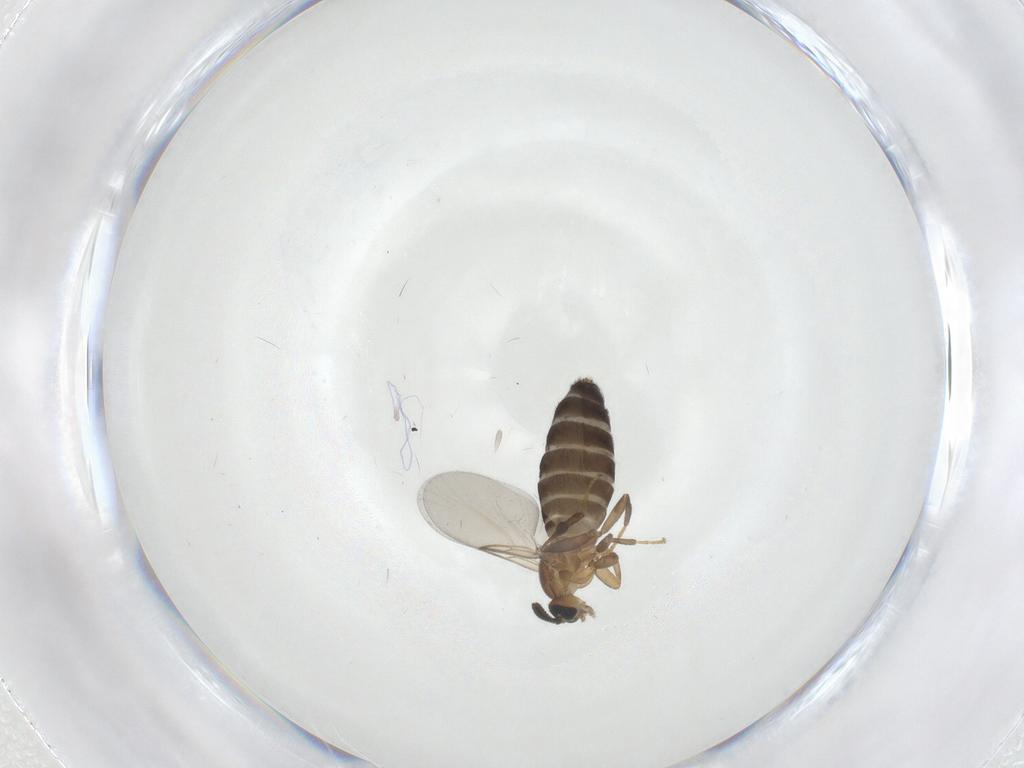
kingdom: Animalia
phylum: Arthropoda
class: Insecta
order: Diptera
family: Scatopsidae
